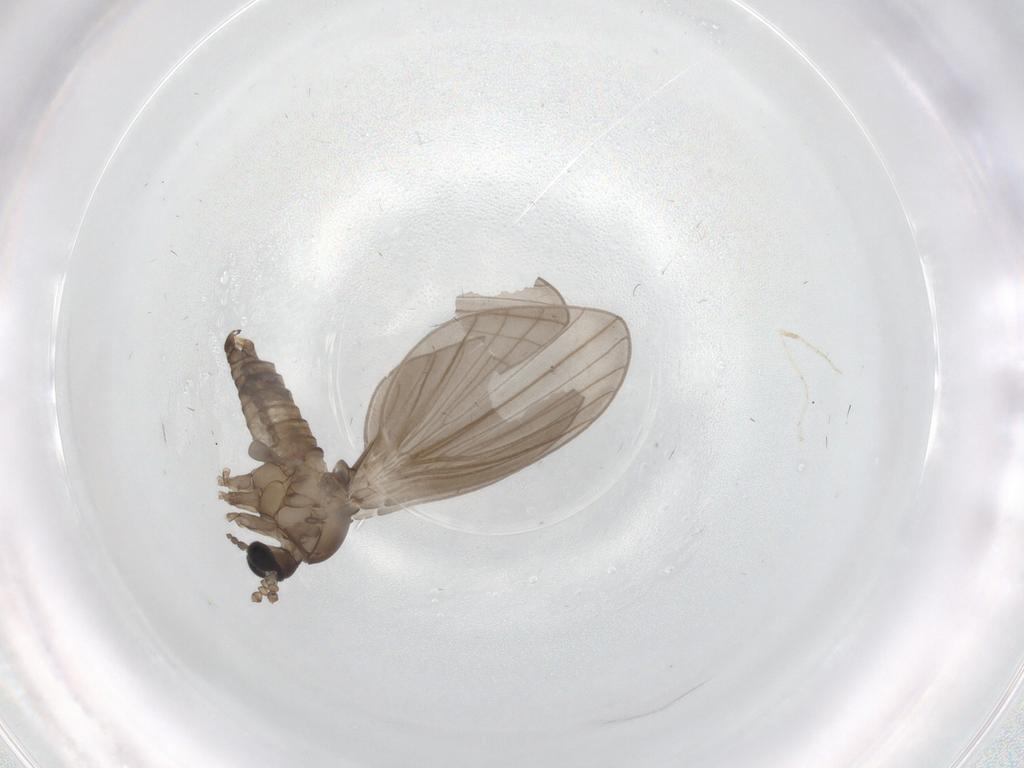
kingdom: Animalia
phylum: Arthropoda
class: Insecta
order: Diptera
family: Psychodidae
